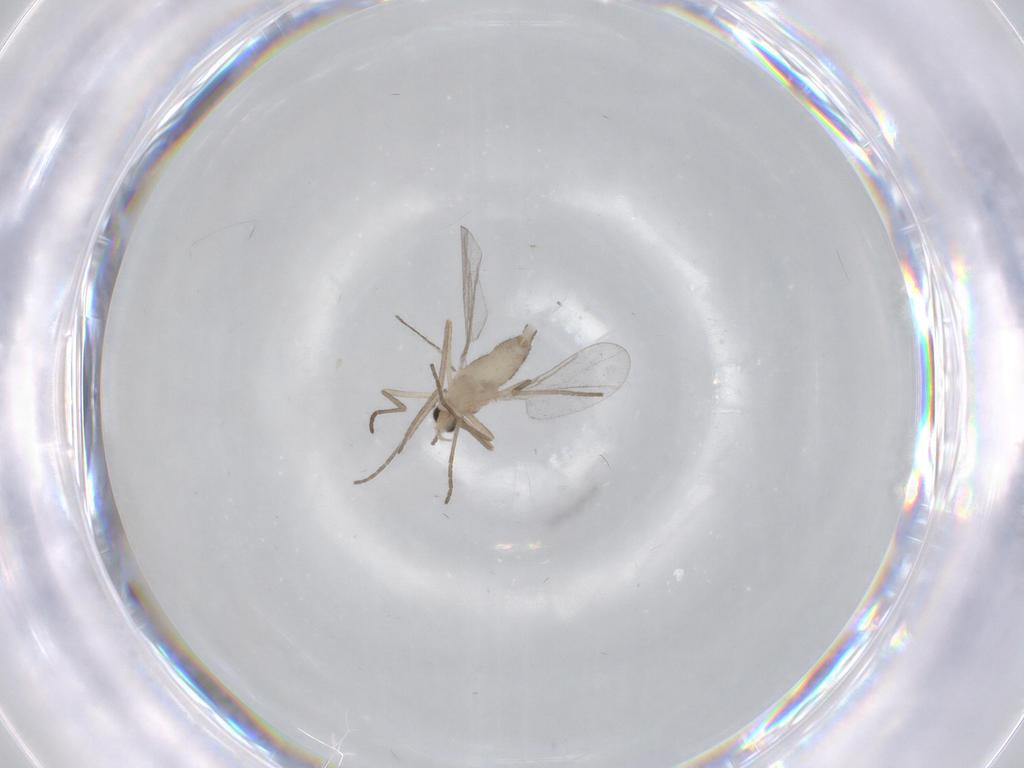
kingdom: Animalia
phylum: Arthropoda
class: Insecta
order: Diptera
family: Cecidomyiidae
